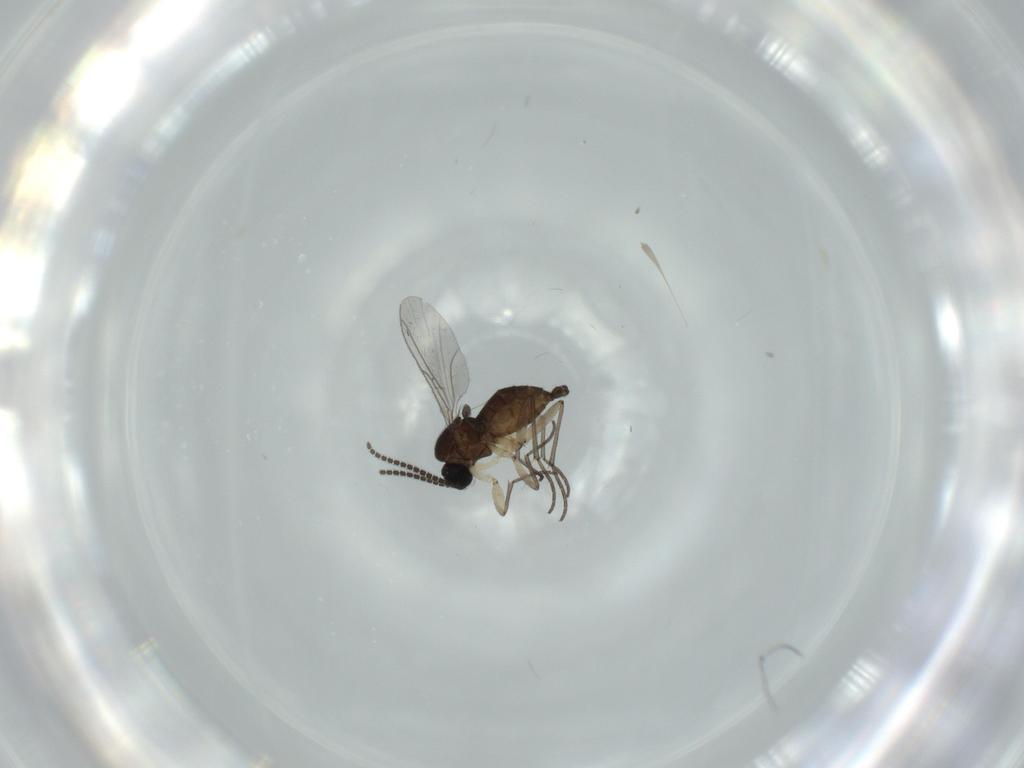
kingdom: Animalia
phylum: Arthropoda
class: Insecta
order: Diptera
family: Sciaridae
